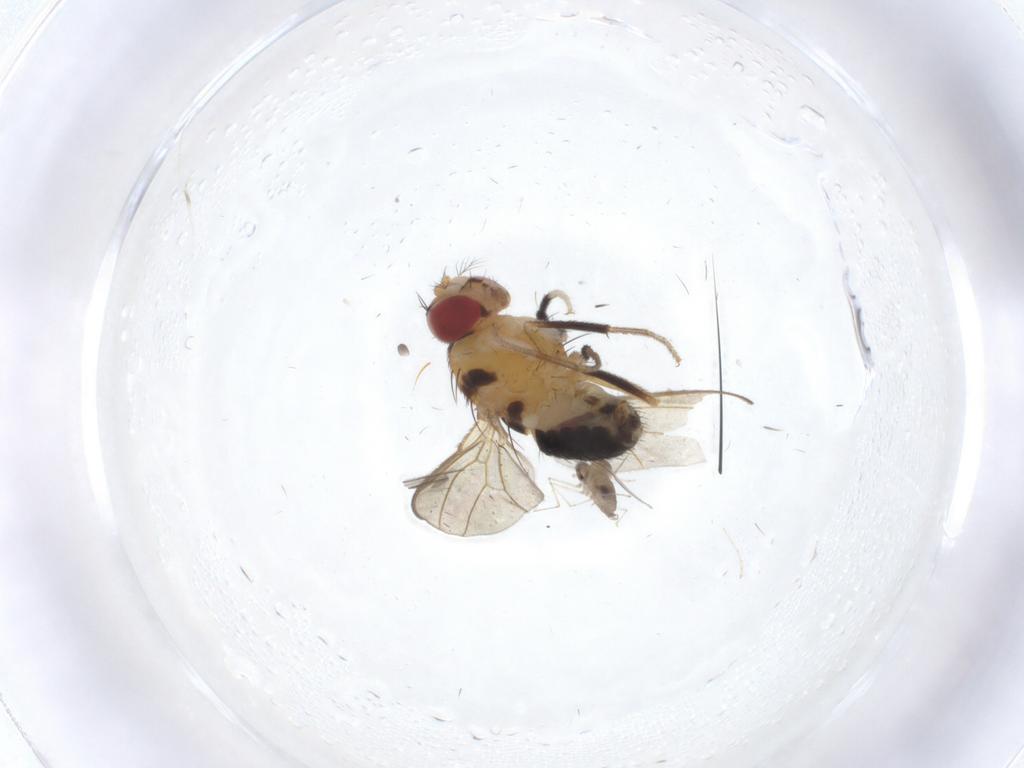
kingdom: Animalia
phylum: Arthropoda
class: Insecta
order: Diptera
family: Drosophilidae
